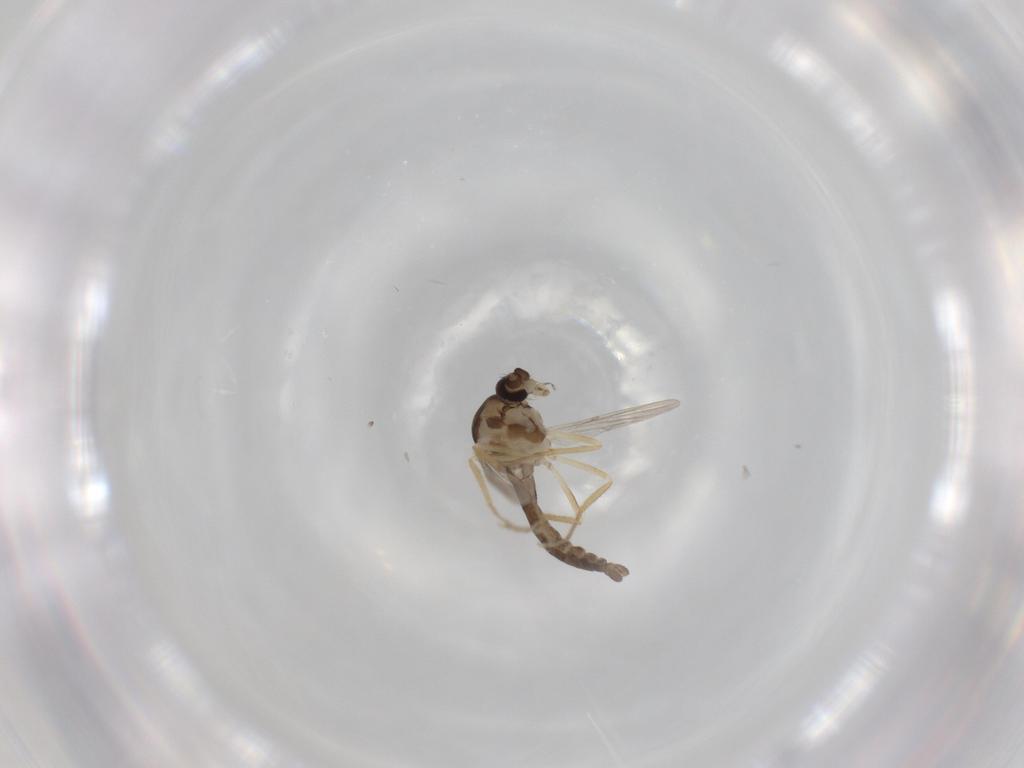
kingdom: Animalia
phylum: Arthropoda
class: Insecta
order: Diptera
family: Ceratopogonidae
